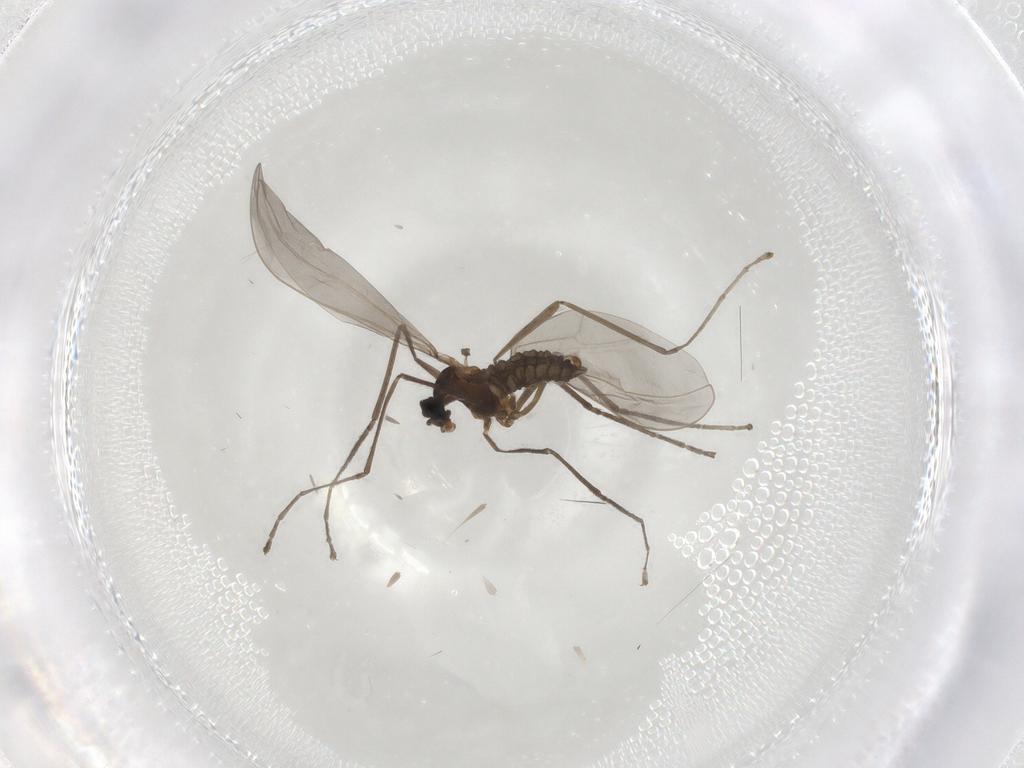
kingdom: Animalia
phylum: Arthropoda
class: Insecta
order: Diptera
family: Cecidomyiidae
